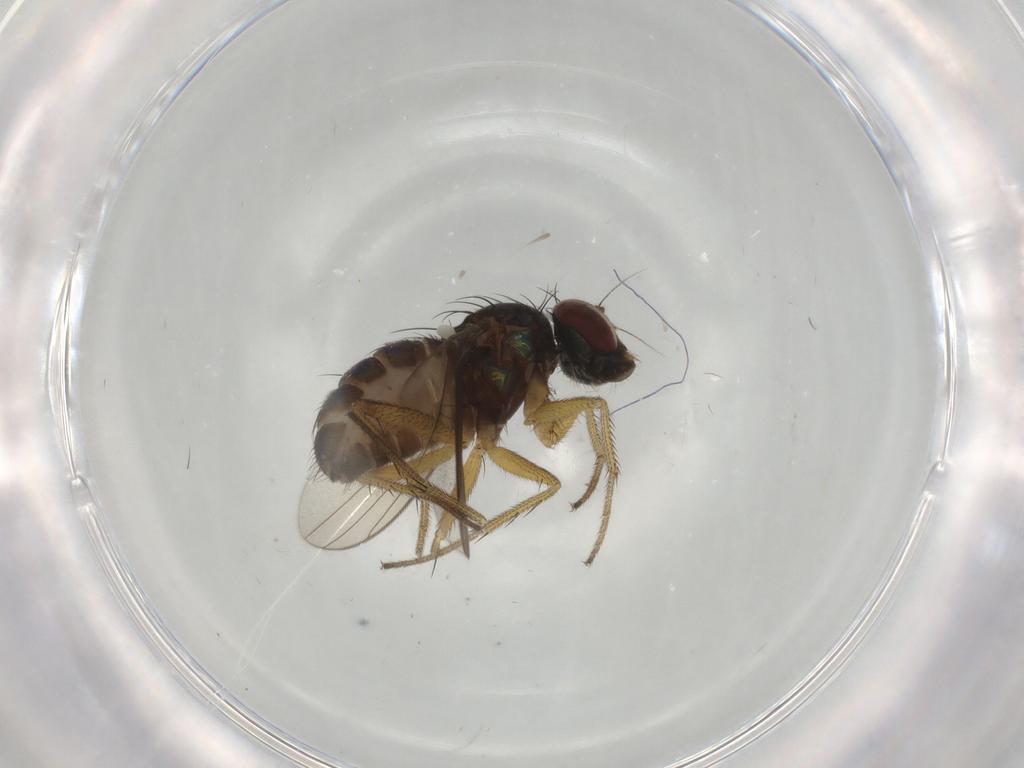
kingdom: Animalia
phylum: Arthropoda
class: Insecta
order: Diptera
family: Dolichopodidae
